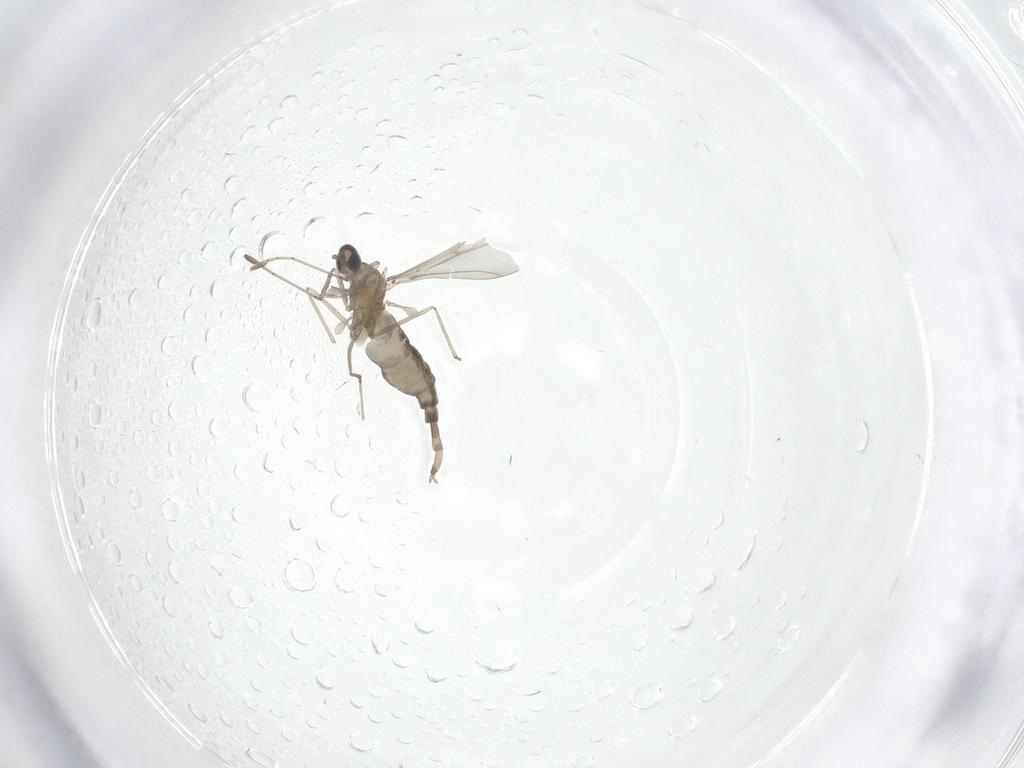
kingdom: Animalia
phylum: Arthropoda
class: Insecta
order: Diptera
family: Cecidomyiidae
